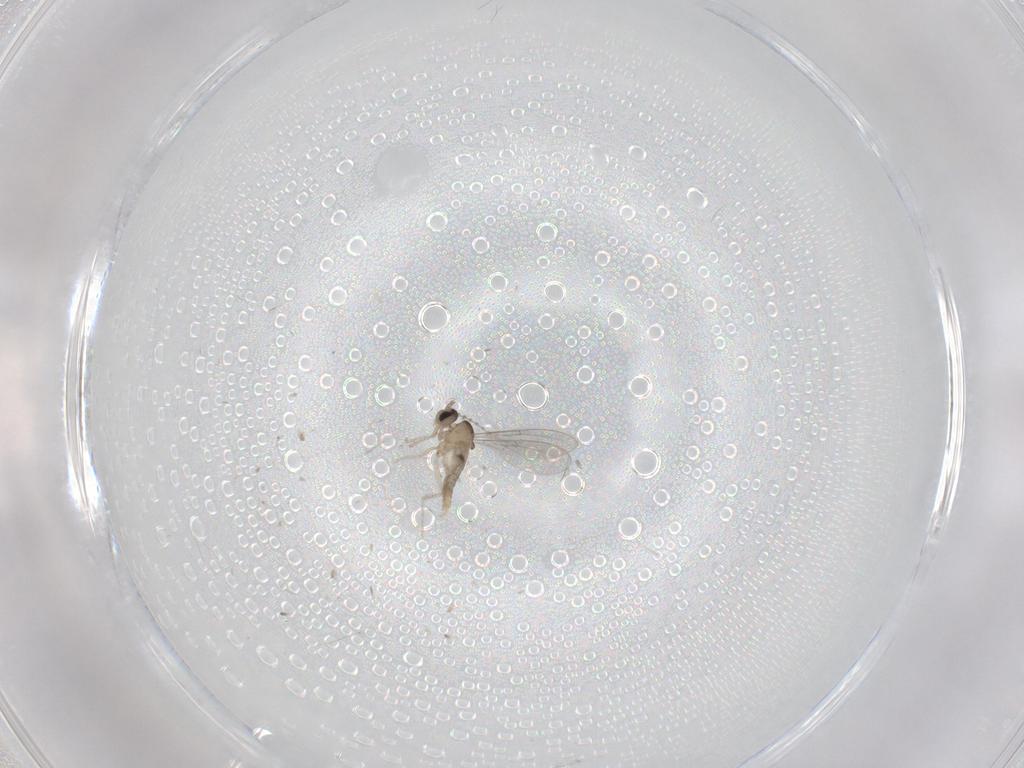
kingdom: Animalia
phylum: Arthropoda
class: Insecta
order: Diptera
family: Cecidomyiidae
